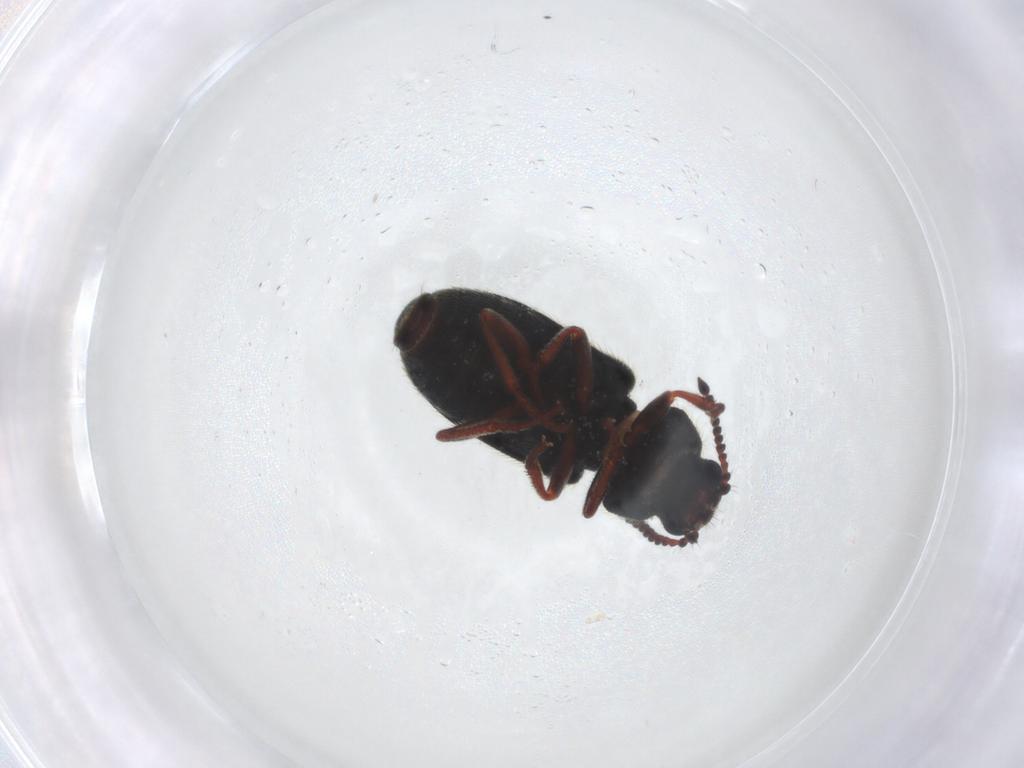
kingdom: Animalia
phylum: Arthropoda
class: Insecta
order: Coleoptera
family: Melyridae
